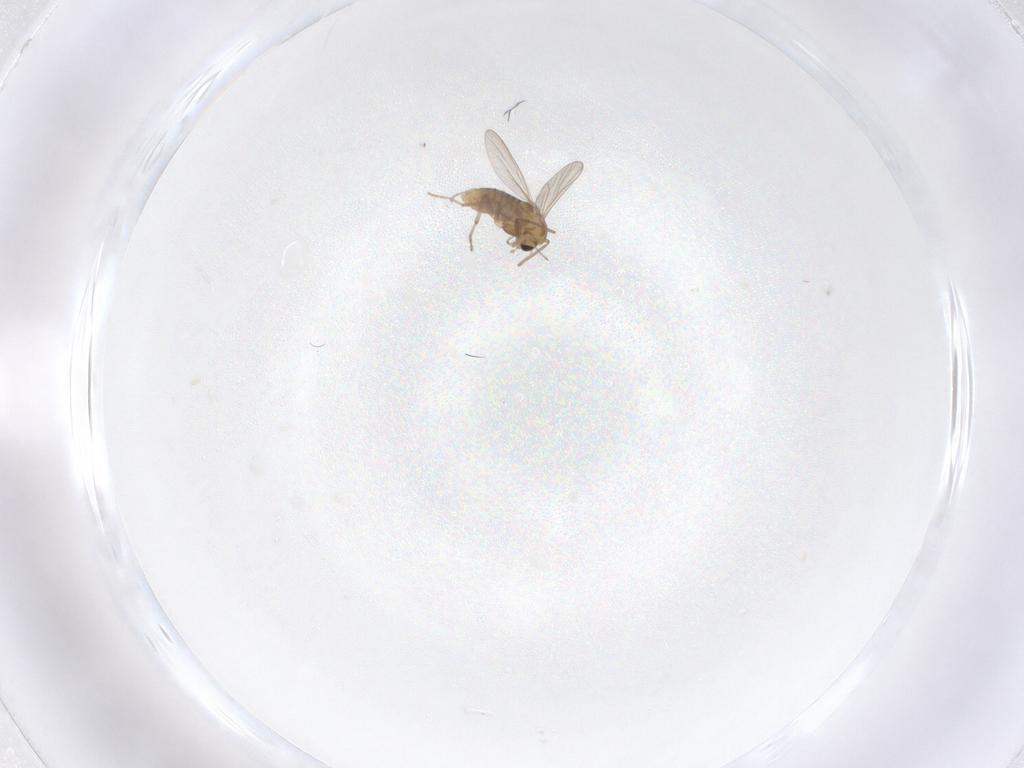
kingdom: Animalia
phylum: Arthropoda
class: Insecta
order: Diptera
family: Chironomidae
